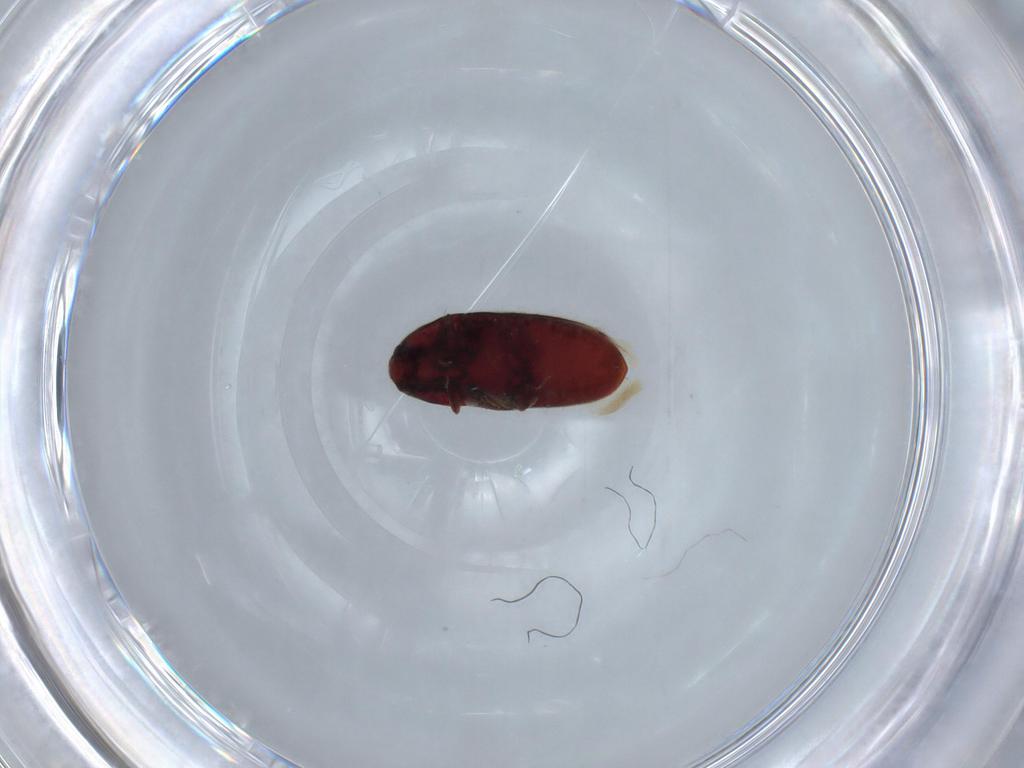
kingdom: Animalia
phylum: Arthropoda
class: Insecta
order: Coleoptera
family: Throscidae
